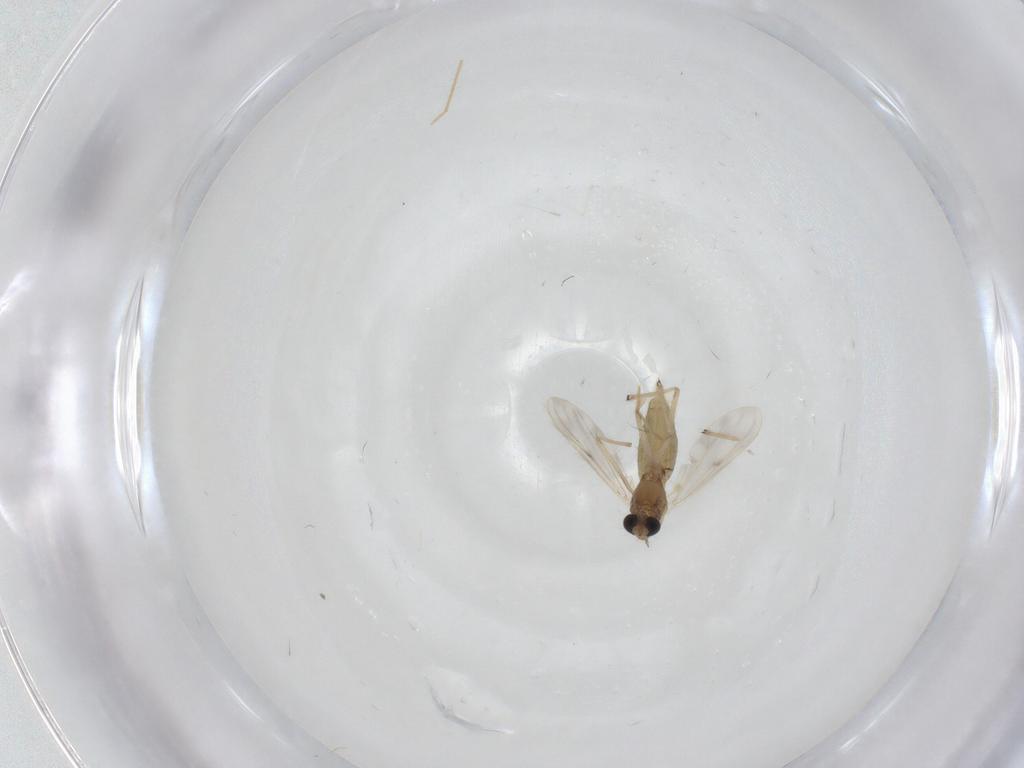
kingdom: Animalia
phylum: Arthropoda
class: Insecta
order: Diptera
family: Chironomidae
